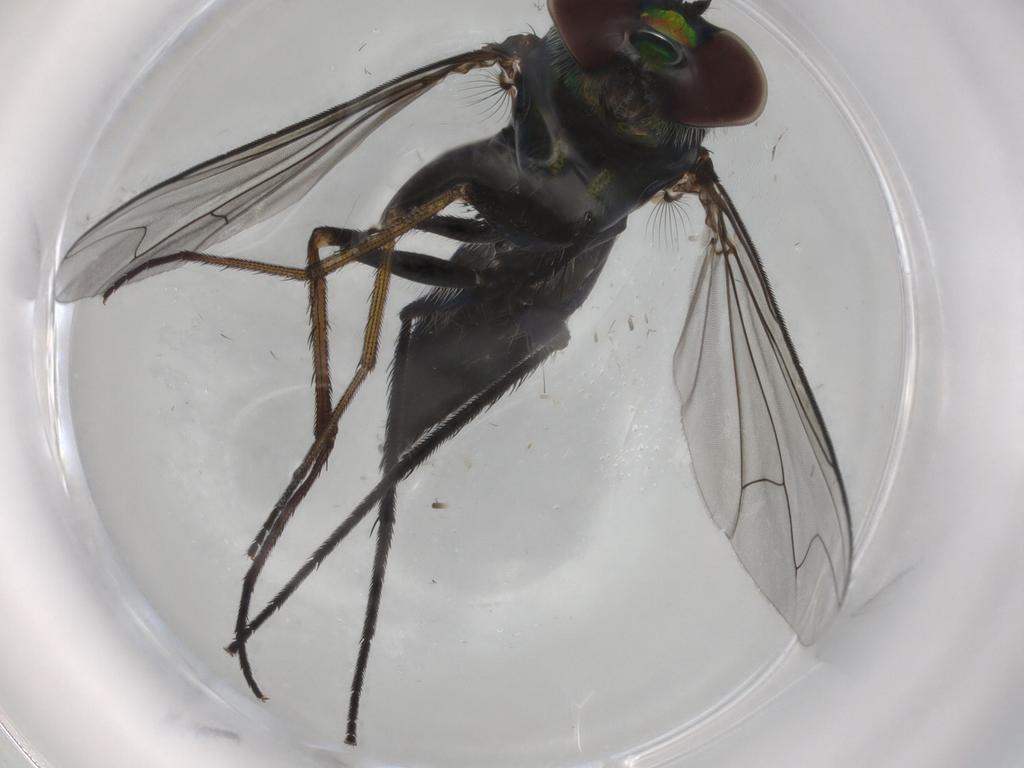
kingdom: Animalia
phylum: Arthropoda
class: Insecta
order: Diptera
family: Dolichopodidae
